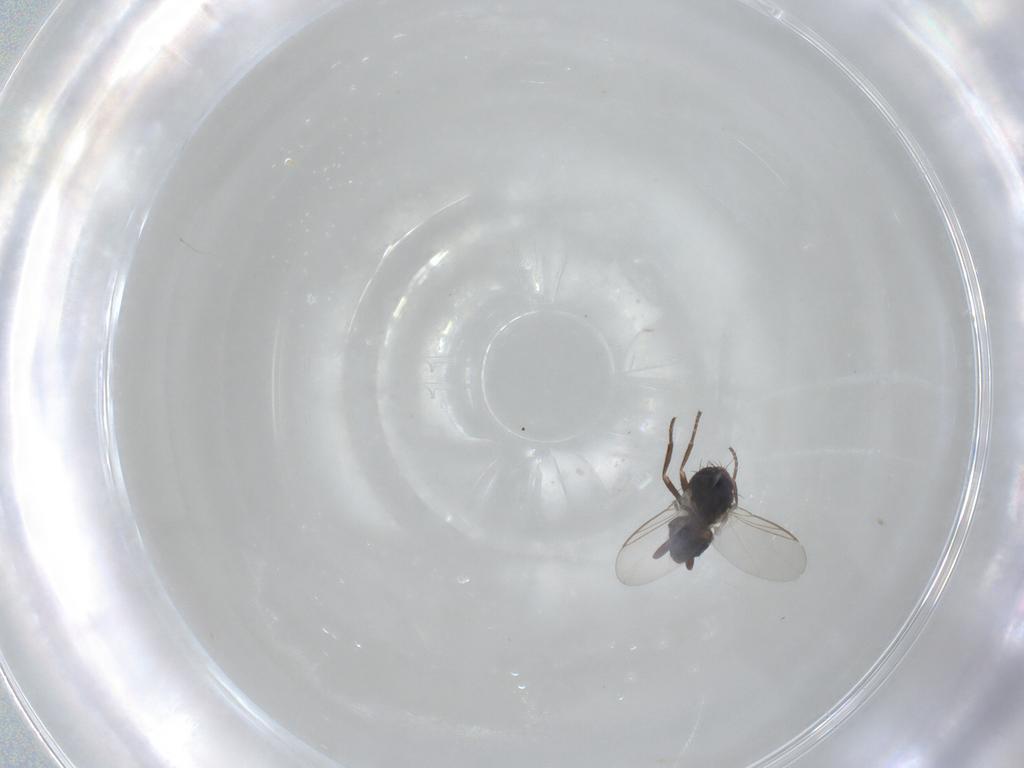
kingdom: Animalia
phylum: Arthropoda
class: Insecta
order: Diptera
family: Agromyzidae
